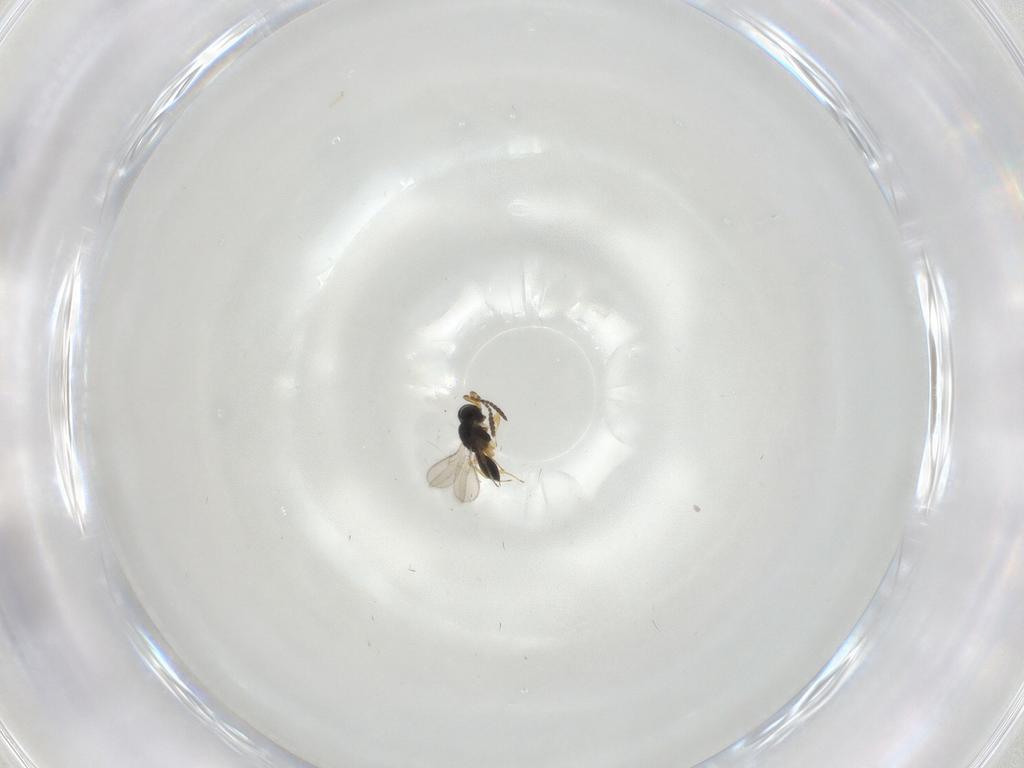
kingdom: Animalia
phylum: Arthropoda
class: Insecta
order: Hymenoptera
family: Scelionidae
